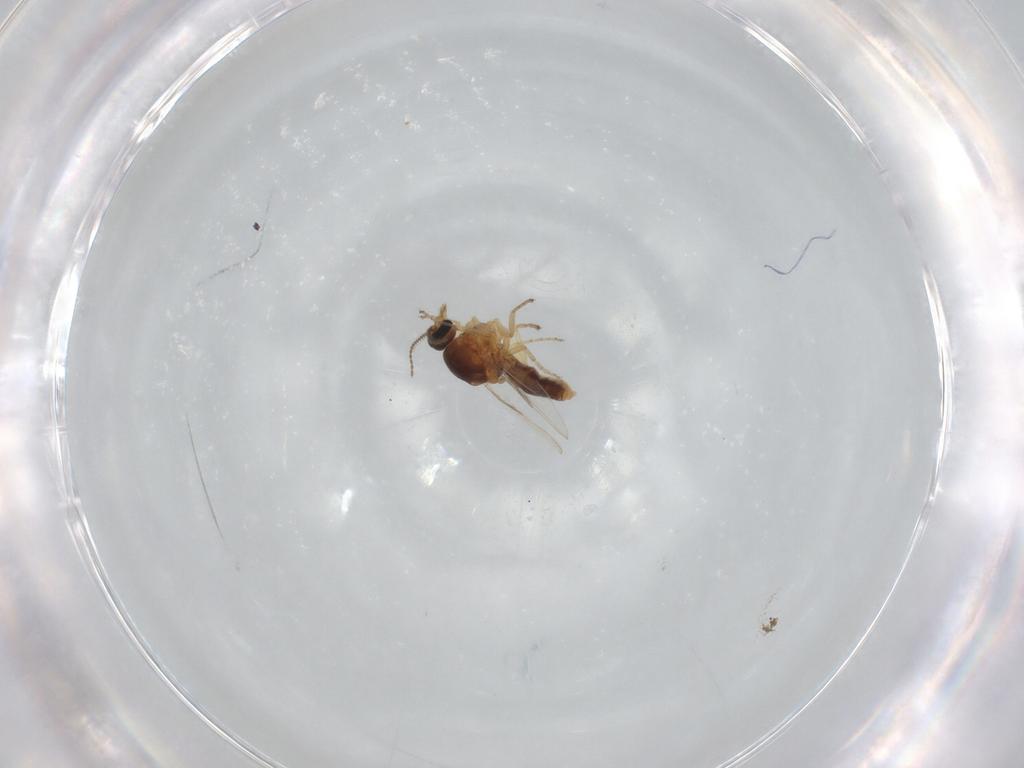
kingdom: Animalia
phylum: Arthropoda
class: Insecta
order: Diptera
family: Ceratopogonidae
